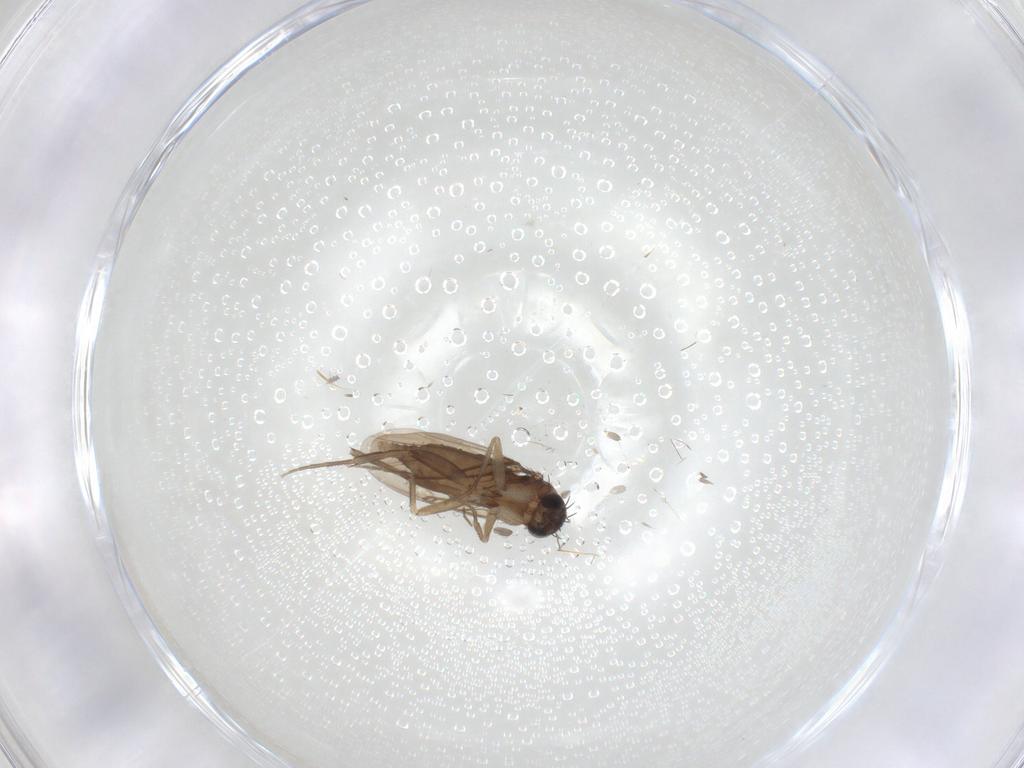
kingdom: Animalia
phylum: Arthropoda
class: Insecta
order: Diptera
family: Phoridae
